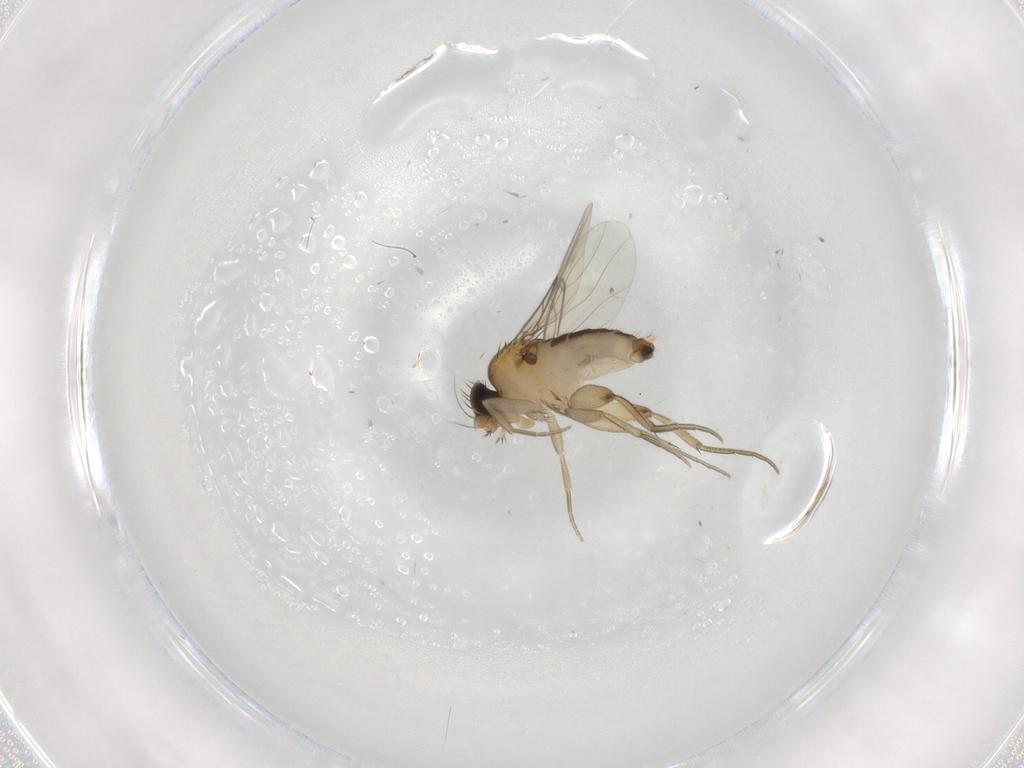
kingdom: Animalia
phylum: Arthropoda
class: Insecta
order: Diptera
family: Phoridae
